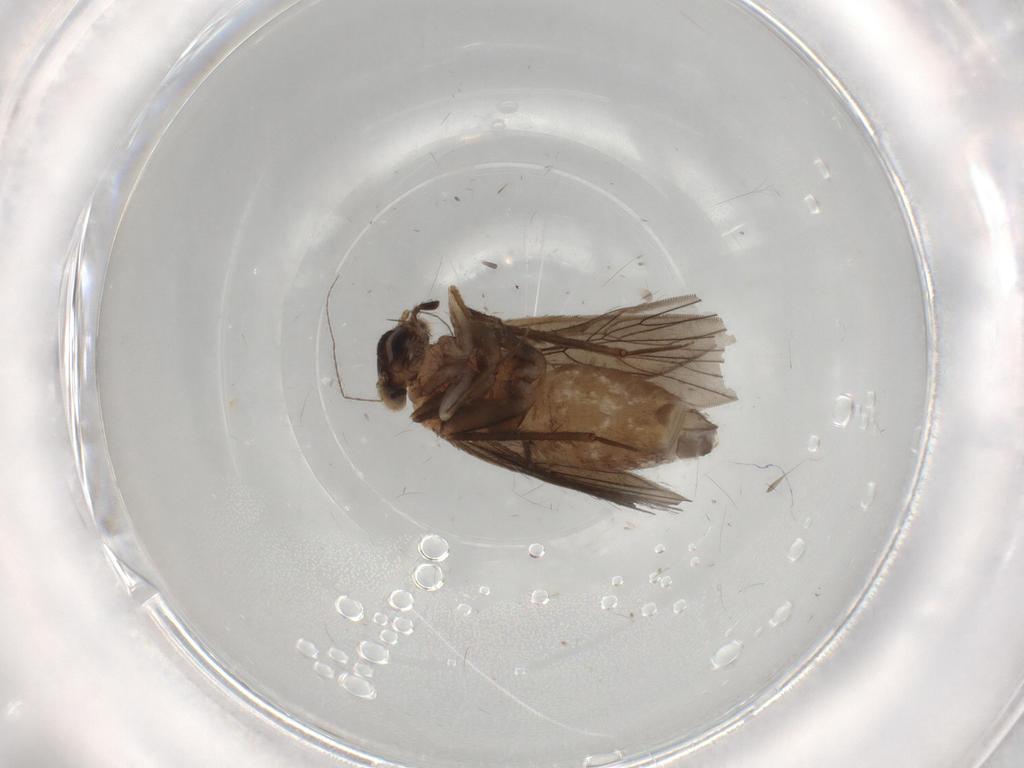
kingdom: Animalia
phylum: Arthropoda
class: Insecta
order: Psocodea
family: Lepidopsocidae
